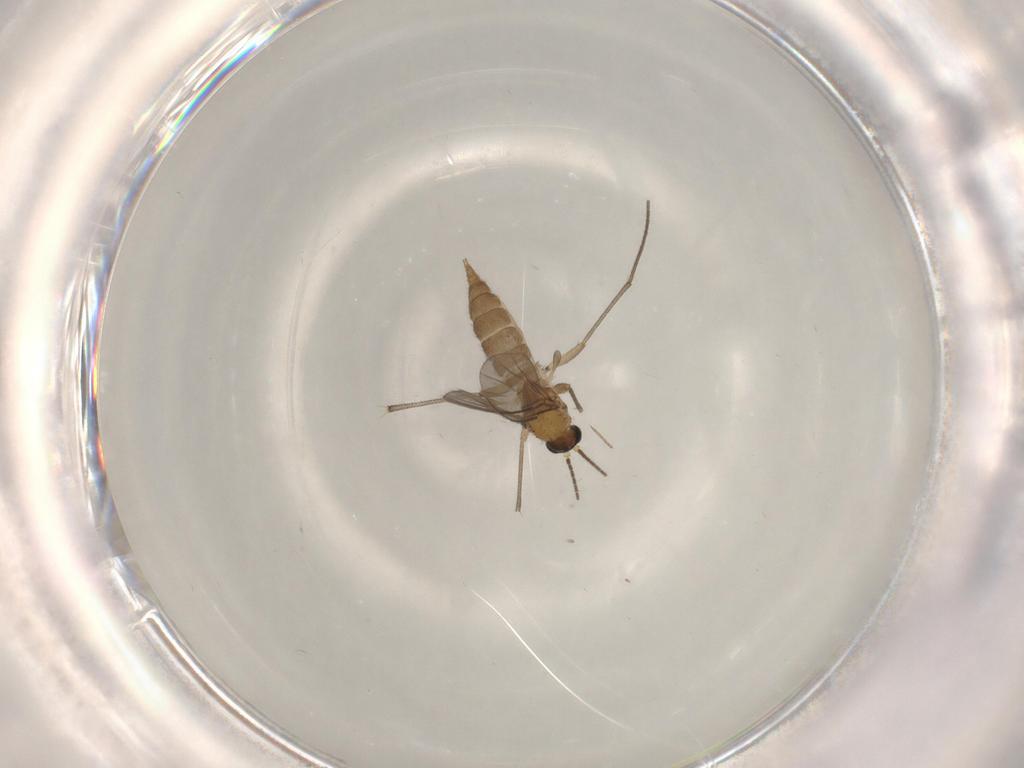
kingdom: Animalia
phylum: Arthropoda
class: Insecta
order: Diptera
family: Sciaridae
